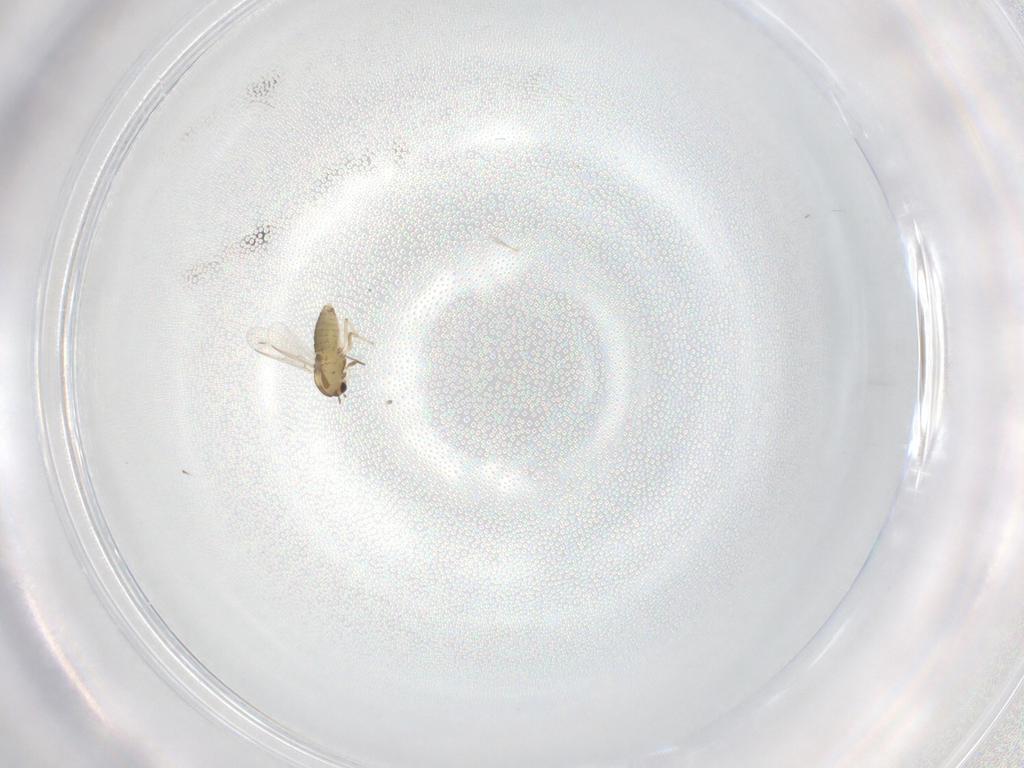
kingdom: Animalia
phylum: Arthropoda
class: Insecta
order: Diptera
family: Chironomidae
